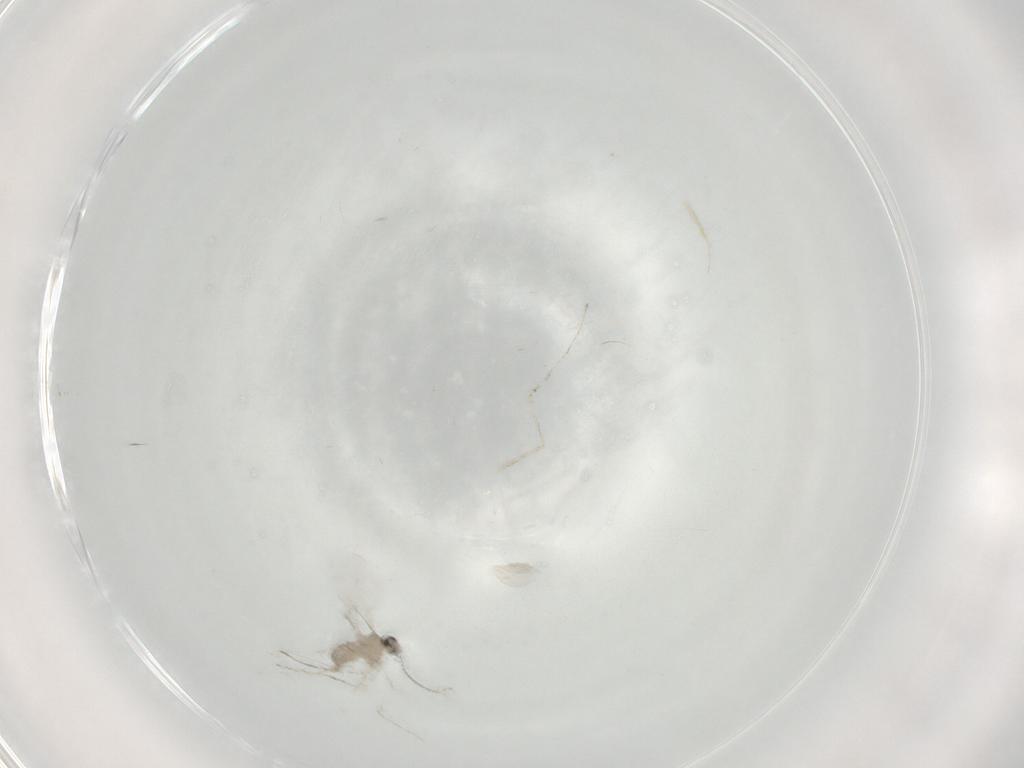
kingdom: Animalia
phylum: Arthropoda
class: Insecta
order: Diptera
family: Cecidomyiidae
